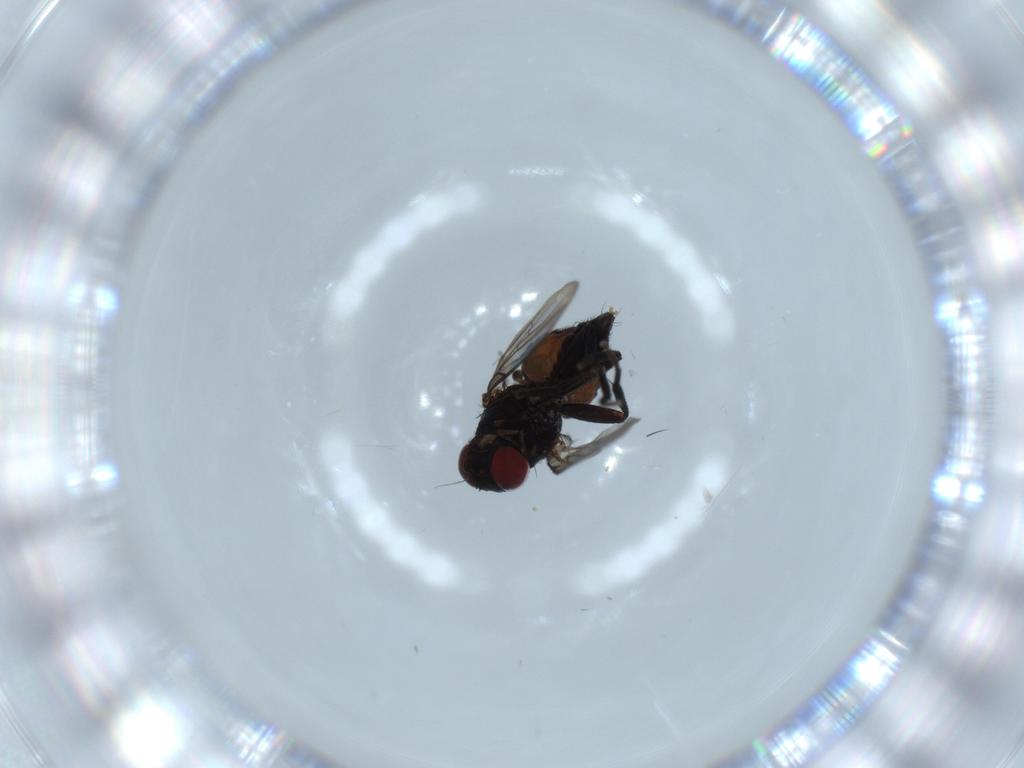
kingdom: Animalia
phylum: Arthropoda
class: Insecta
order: Diptera
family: Agromyzidae
